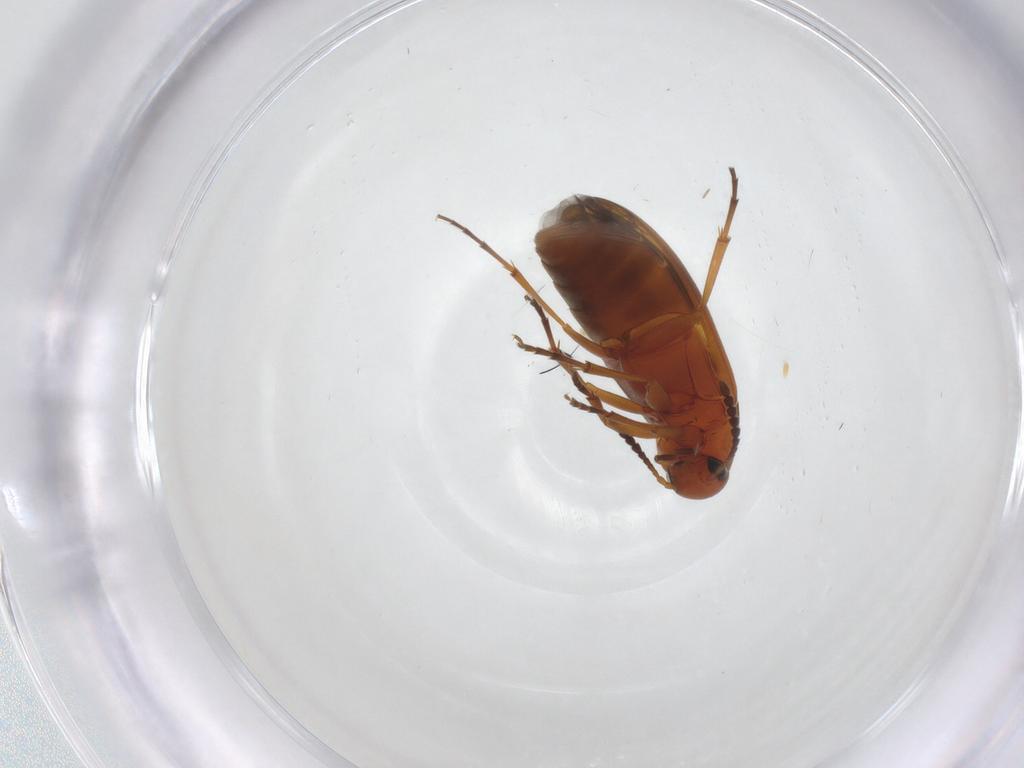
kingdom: Animalia
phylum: Arthropoda
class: Insecta
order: Coleoptera
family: Scraptiidae
